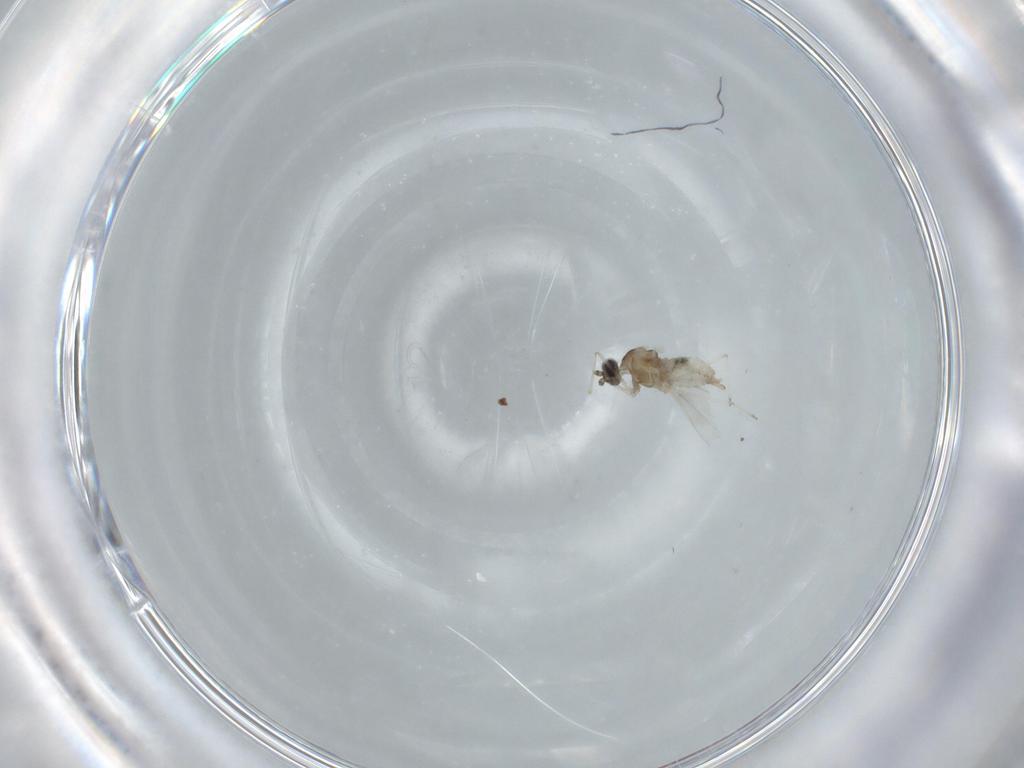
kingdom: Animalia
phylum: Arthropoda
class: Insecta
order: Diptera
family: Cecidomyiidae
